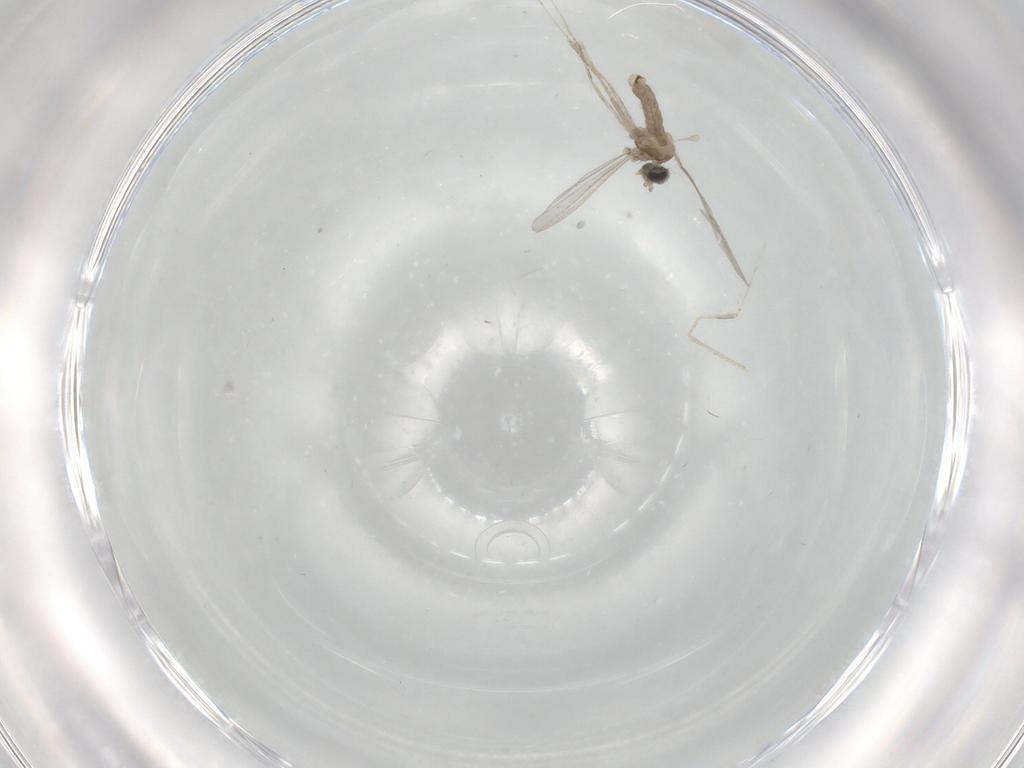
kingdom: Animalia
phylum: Arthropoda
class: Insecta
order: Diptera
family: Cecidomyiidae
